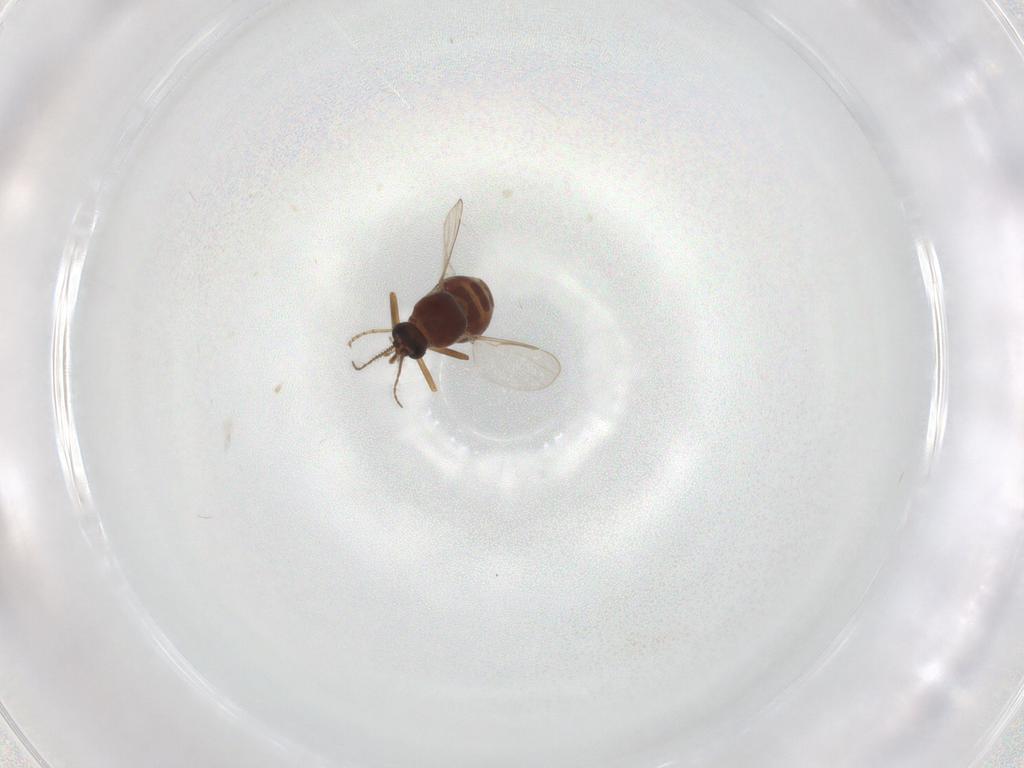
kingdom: Animalia
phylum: Arthropoda
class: Insecta
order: Diptera
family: Ceratopogonidae
